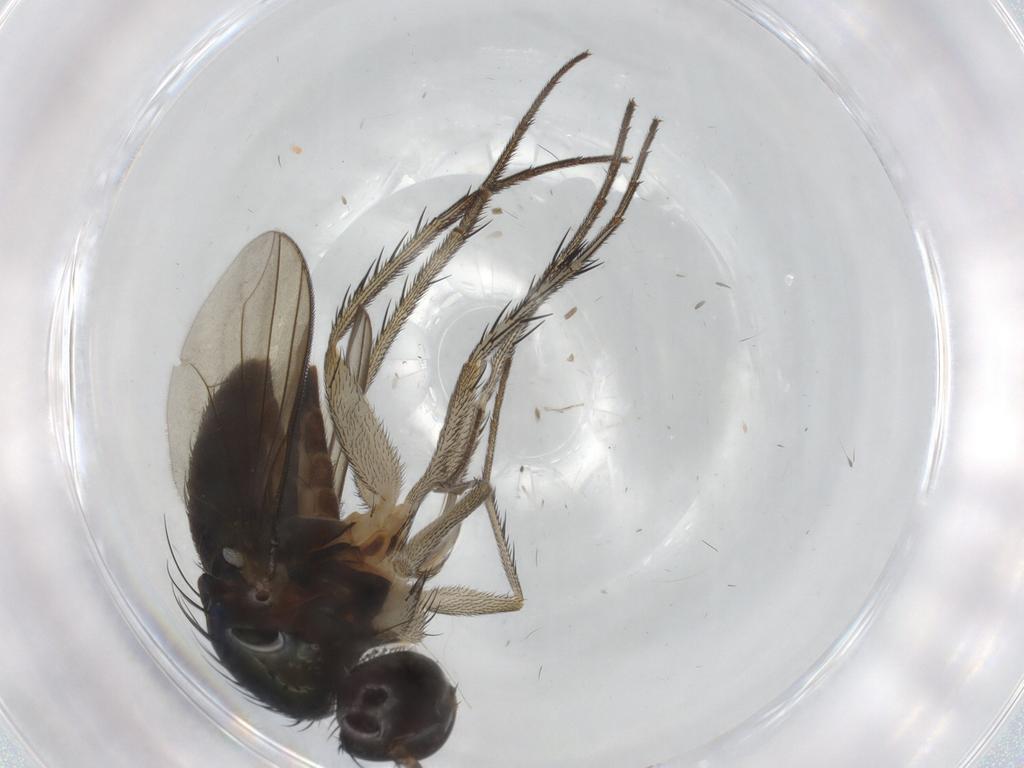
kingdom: Animalia
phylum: Arthropoda
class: Insecta
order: Diptera
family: Dolichopodidae
